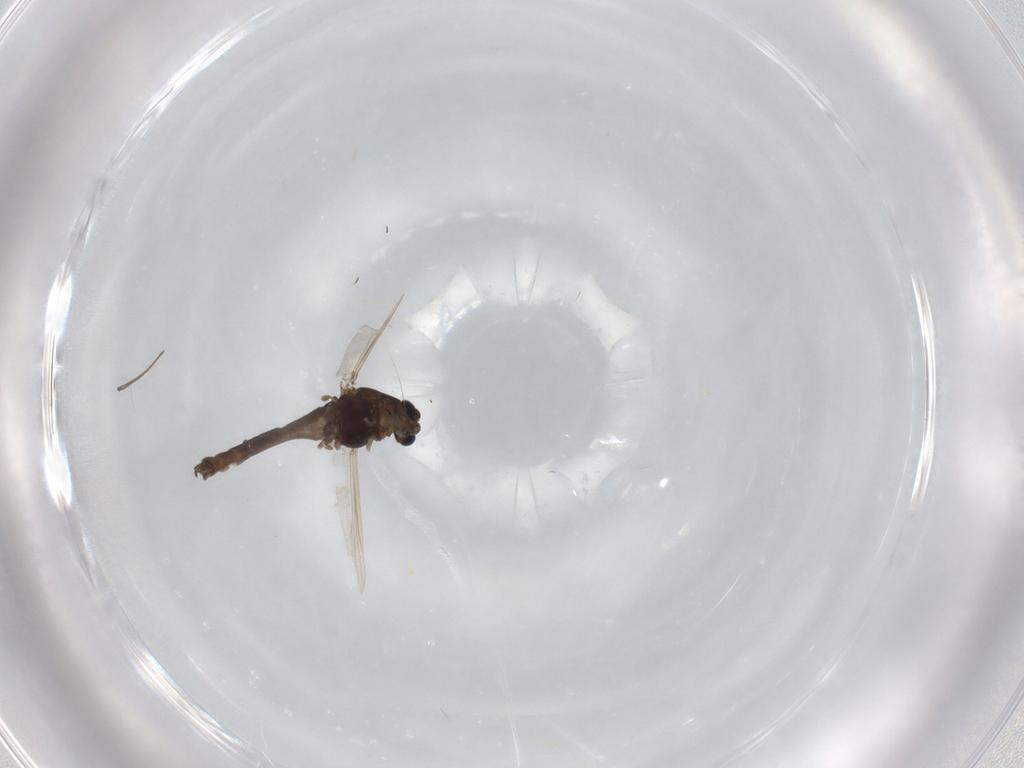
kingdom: Animalia
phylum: Arthropoda
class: Insecta
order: Diptera
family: Chironomidae
